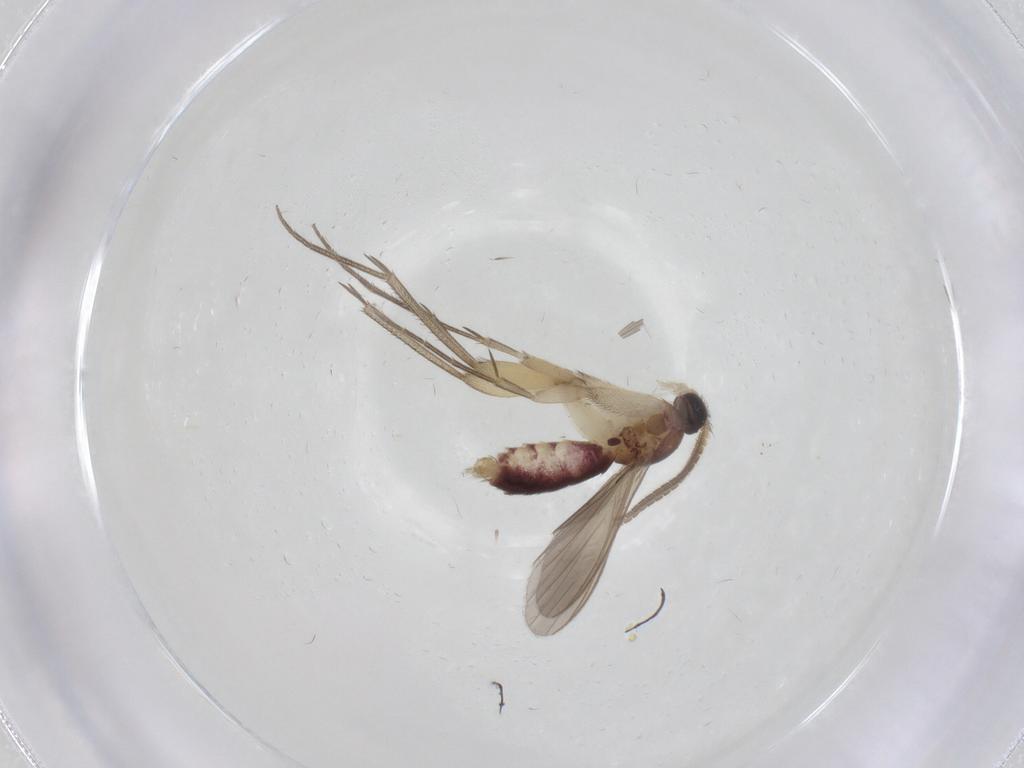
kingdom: Animalia
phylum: Arthropoda
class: Insecta
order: Diptera
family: Mycetophilidae
